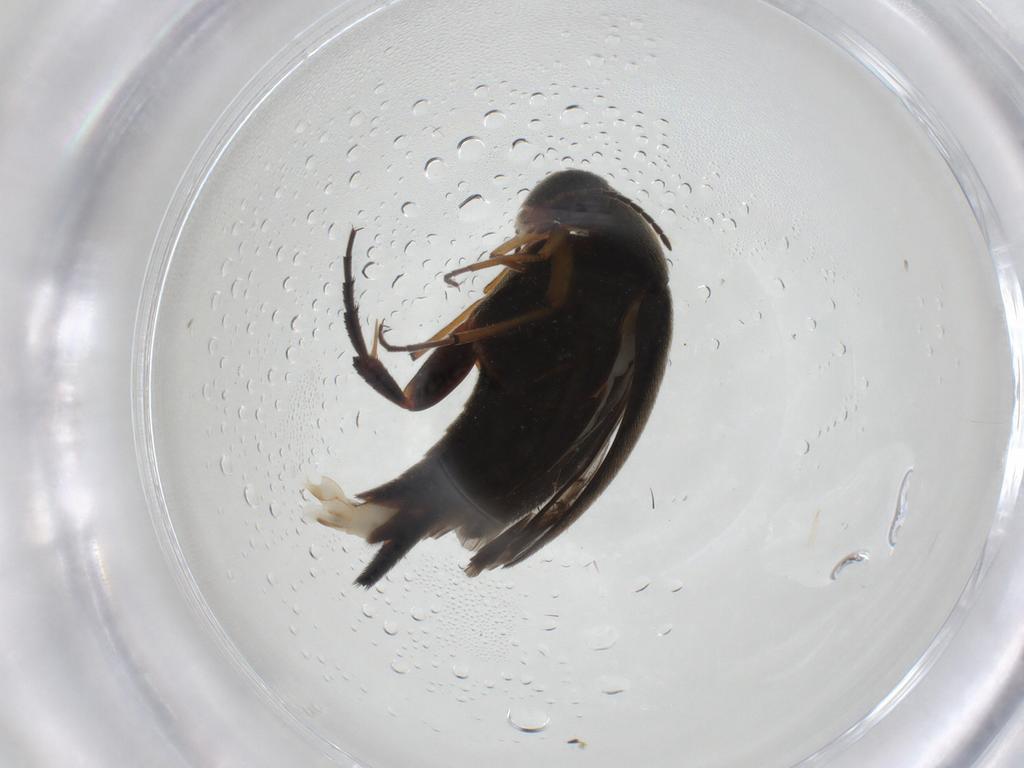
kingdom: Animalia
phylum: Arthropoda
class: Insecta
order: Coleoptera
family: Mordellidae
